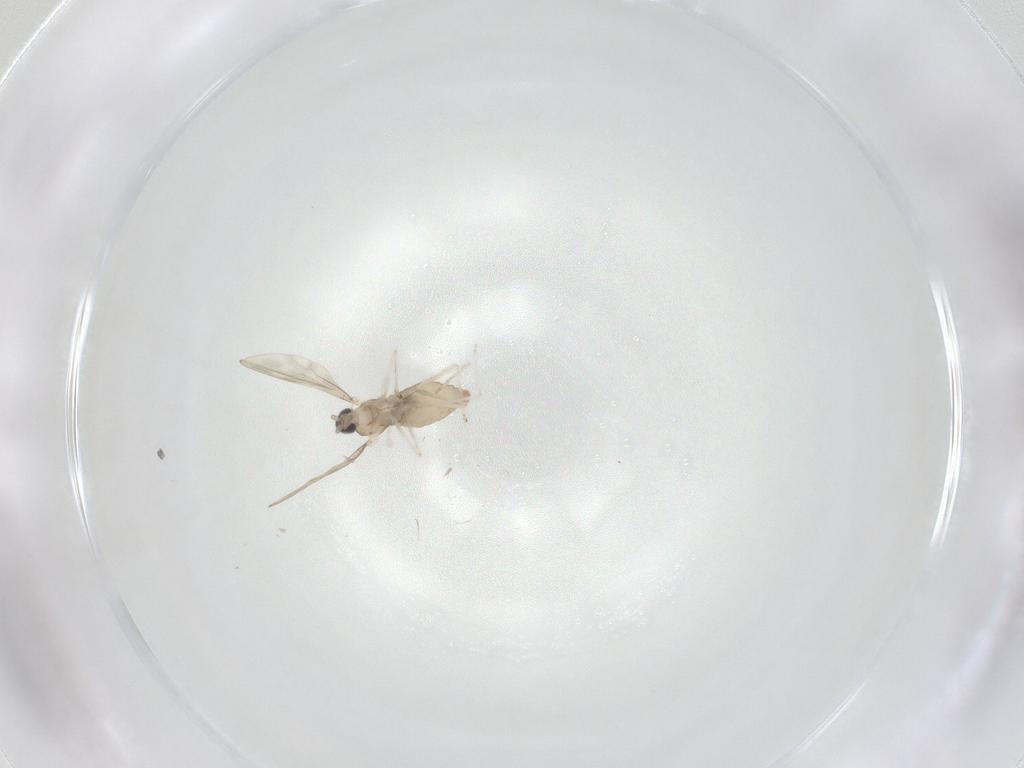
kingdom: Animalia
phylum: Arthropoda
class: Insecta
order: Diptera
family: Cecidomyiidae
